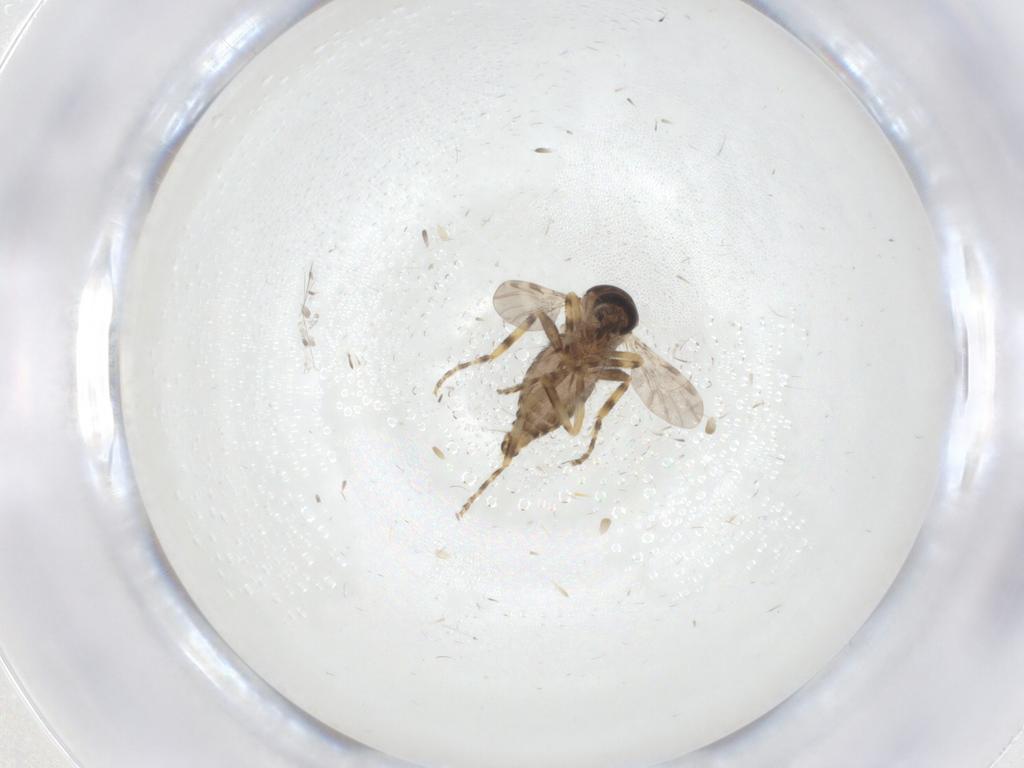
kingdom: Animalia
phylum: Arthropoda
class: Insecta
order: Diptera
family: Ceratopogonidae
